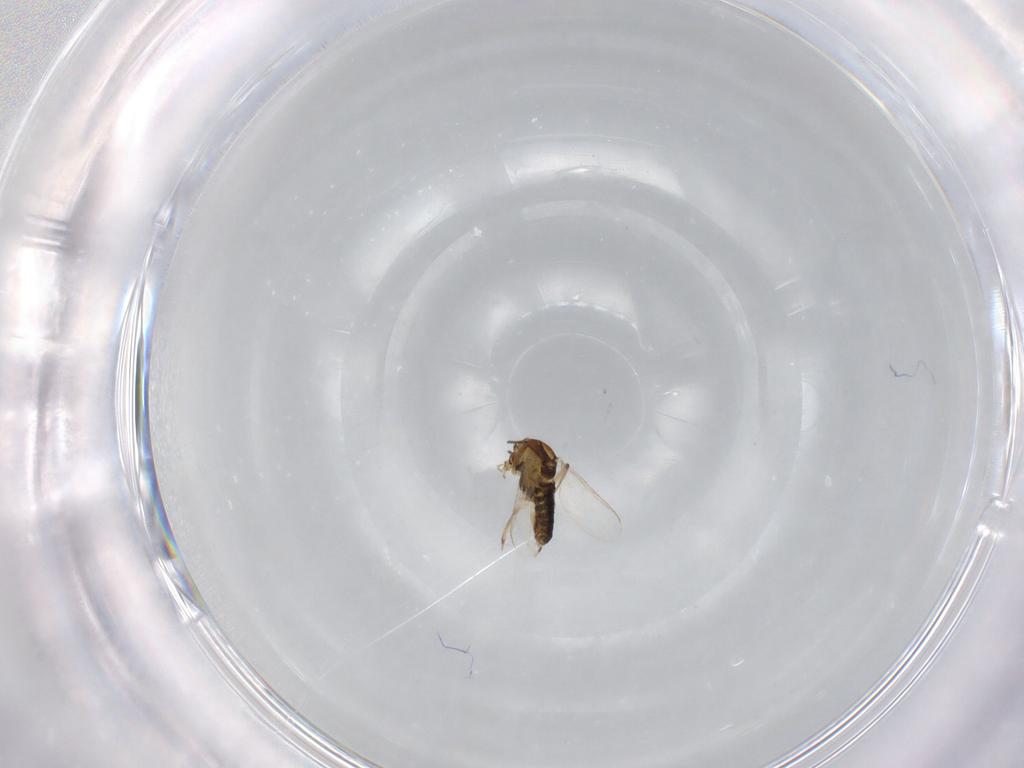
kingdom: Animalia
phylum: Arthropoda
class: Insecta
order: Diptera
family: Chironomidae
